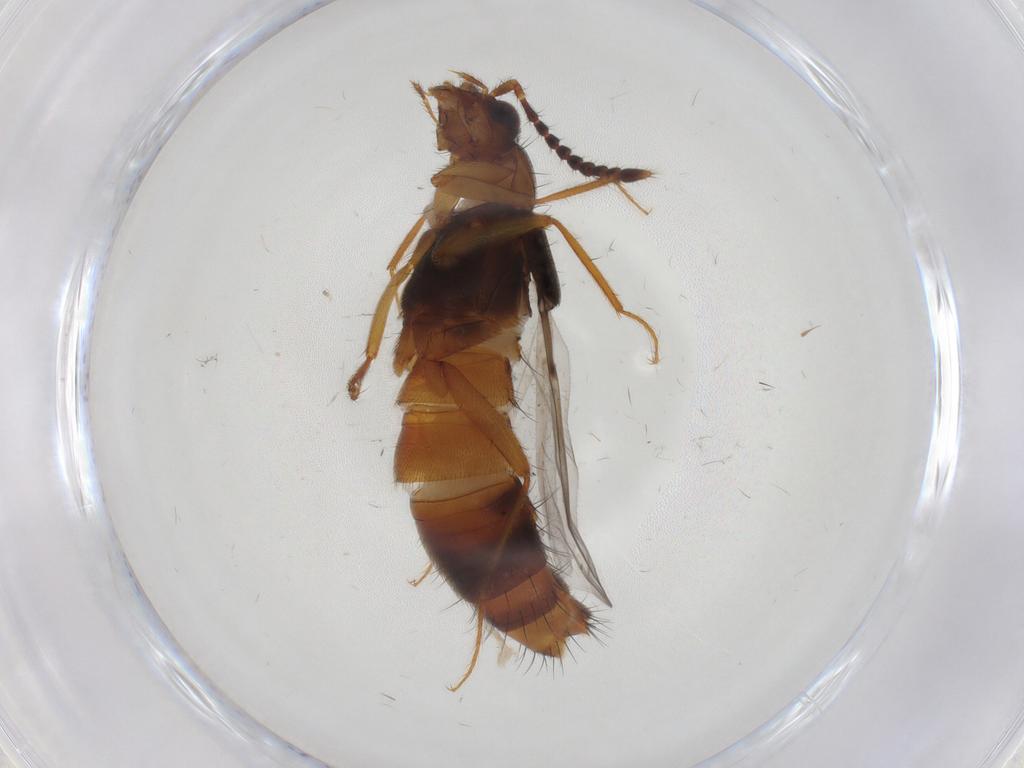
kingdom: Animalia
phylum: Arthropoda
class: Insecta
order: Coleoptera
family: Staphylinidae
